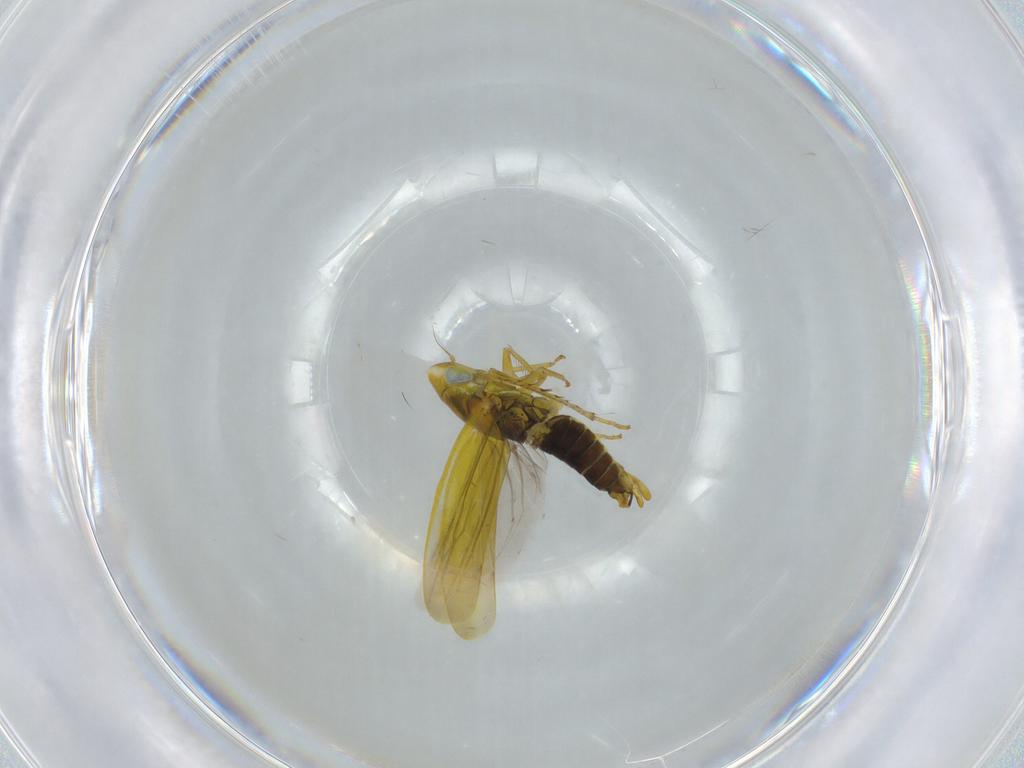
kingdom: Animalia
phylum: Arthropoda
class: Insecta
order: Hemiptera
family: Cicadellidae
